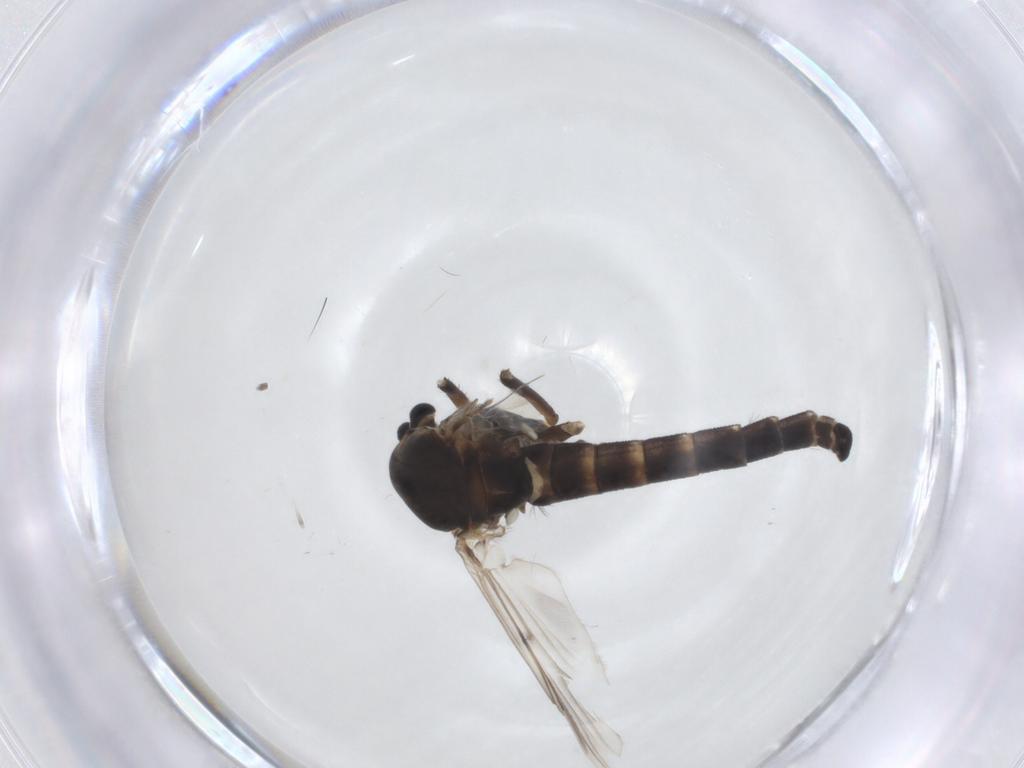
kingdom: Animalia
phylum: Arthropoda
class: Insecta
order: Diptera
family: Chironomidae
